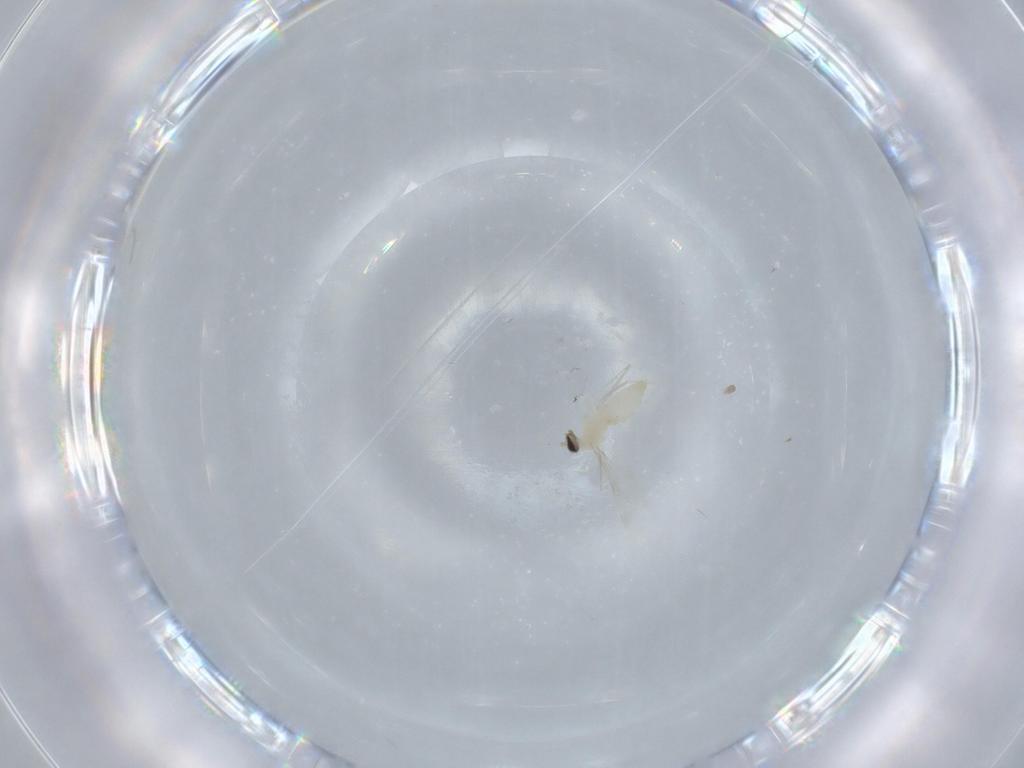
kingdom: Animalia
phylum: Arthropoda
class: Insecta
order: Diptera
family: Cecidomyiidae
